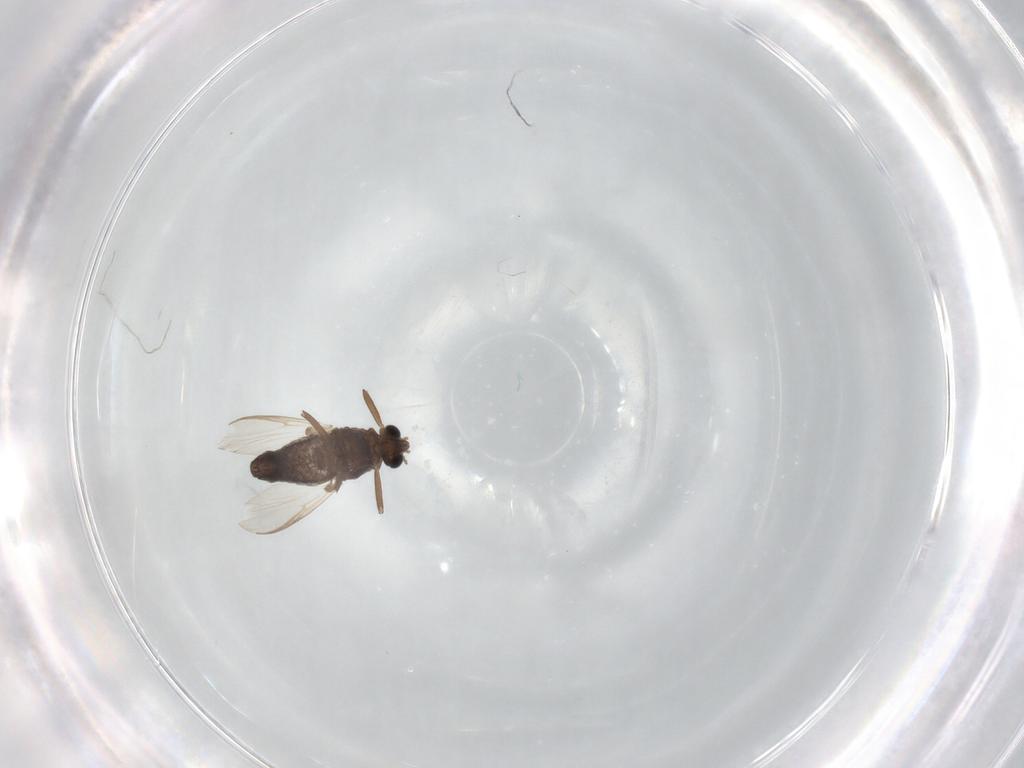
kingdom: Animalia
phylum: Arthropoda
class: Insecta
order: Diptera
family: Chironomidae
